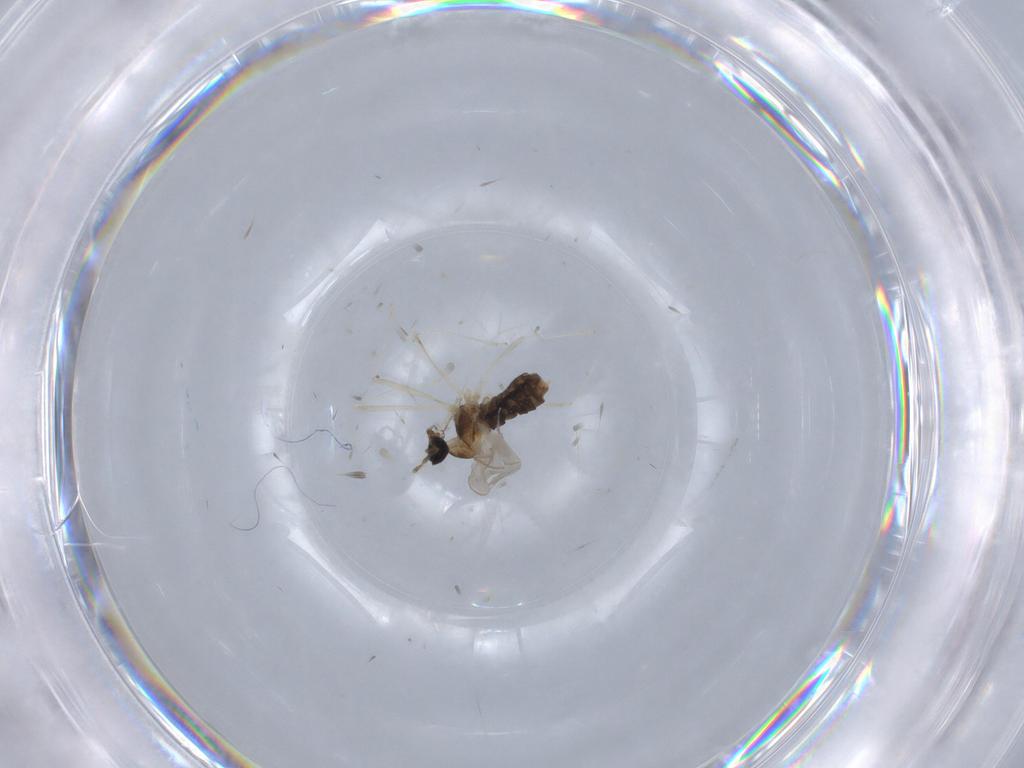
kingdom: Animalia
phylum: Arthropoda
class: Insecta
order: Diptera
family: Cecidomyiidae
